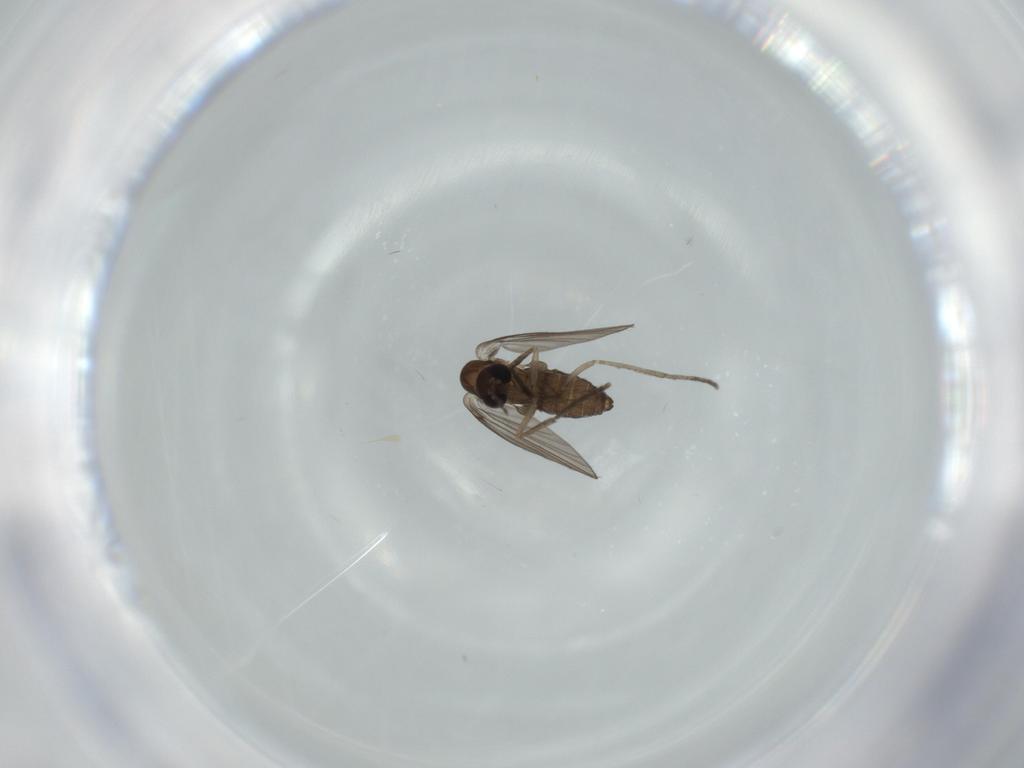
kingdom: Animalia
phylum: Arthropoda
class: Insecta
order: Diptera
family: Psychodidae
